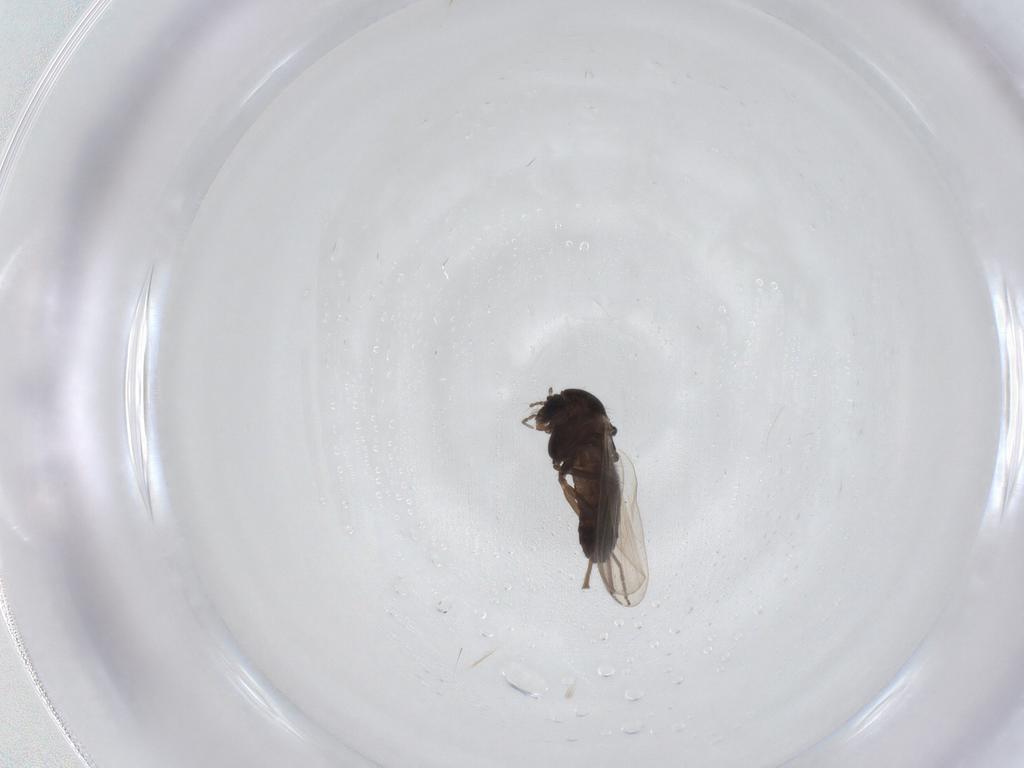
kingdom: Animalia
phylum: Arthropoda
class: Insecta
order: Diptera
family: Chironomidae
